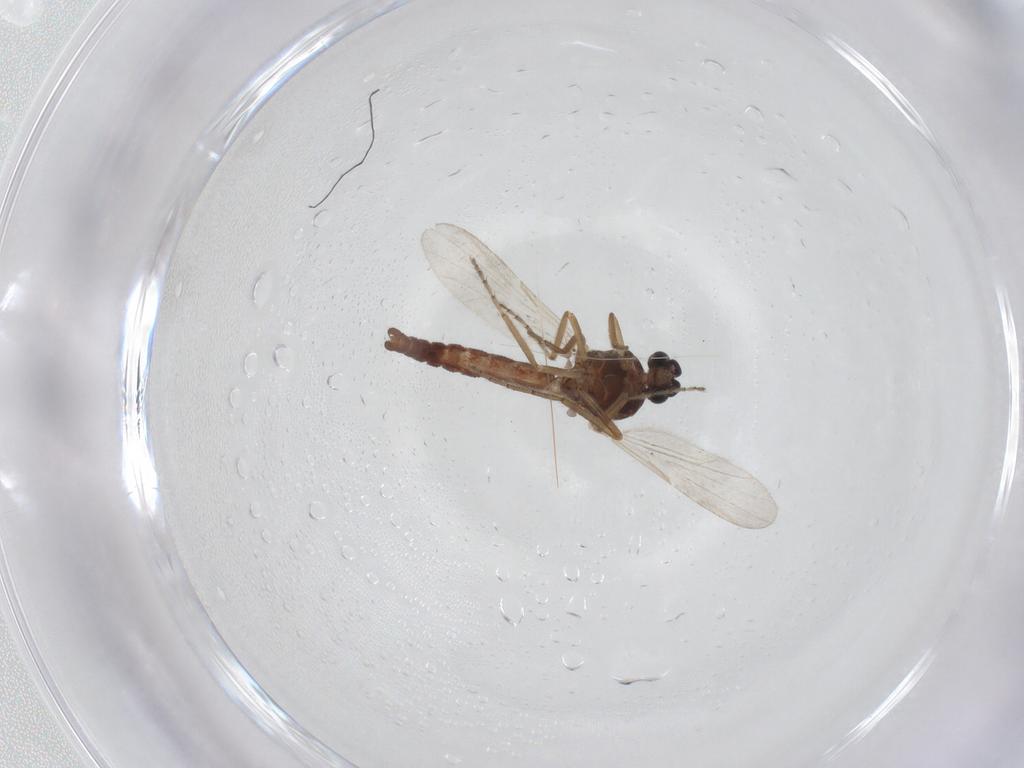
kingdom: Animalia
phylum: Arthropoda
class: Insecta
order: Diptera
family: Ceratopogonidae
